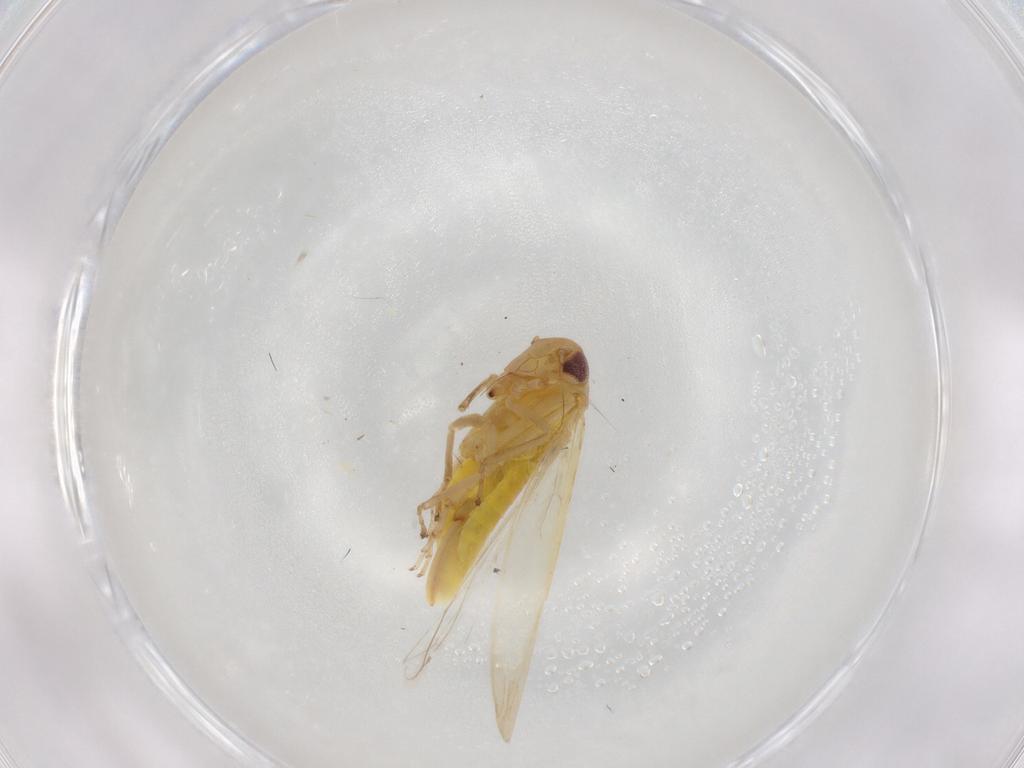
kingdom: Animalia
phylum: Arthropoda
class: Insecta
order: Hemiptera
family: Cicadellidae
